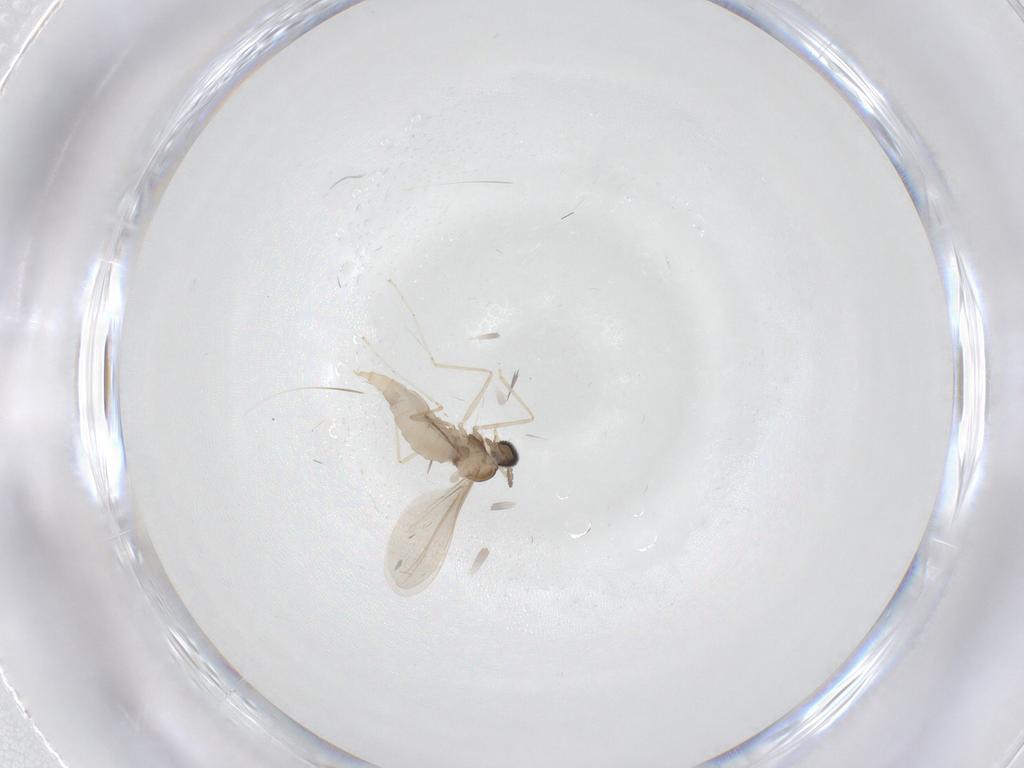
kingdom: Animalia
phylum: Arthropoda
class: Insecta
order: Diptera
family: Cecidomyiidae
